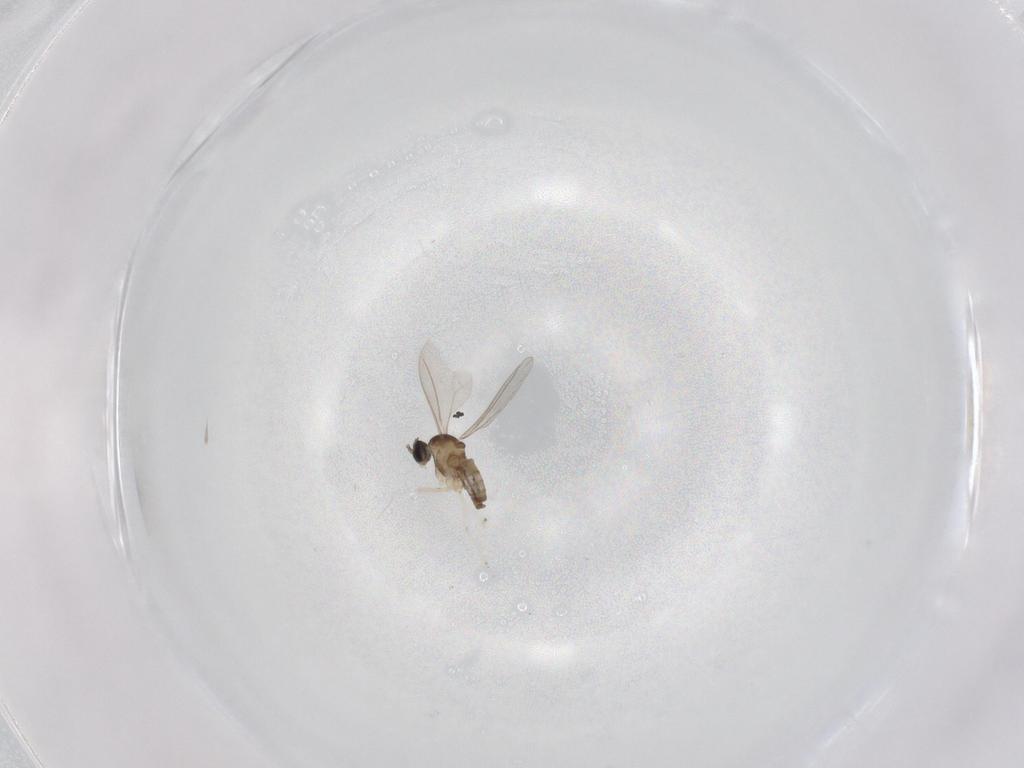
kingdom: Animalia
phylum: Arthropoda
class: Insecta
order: Diptera
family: Cecidomyiidae
